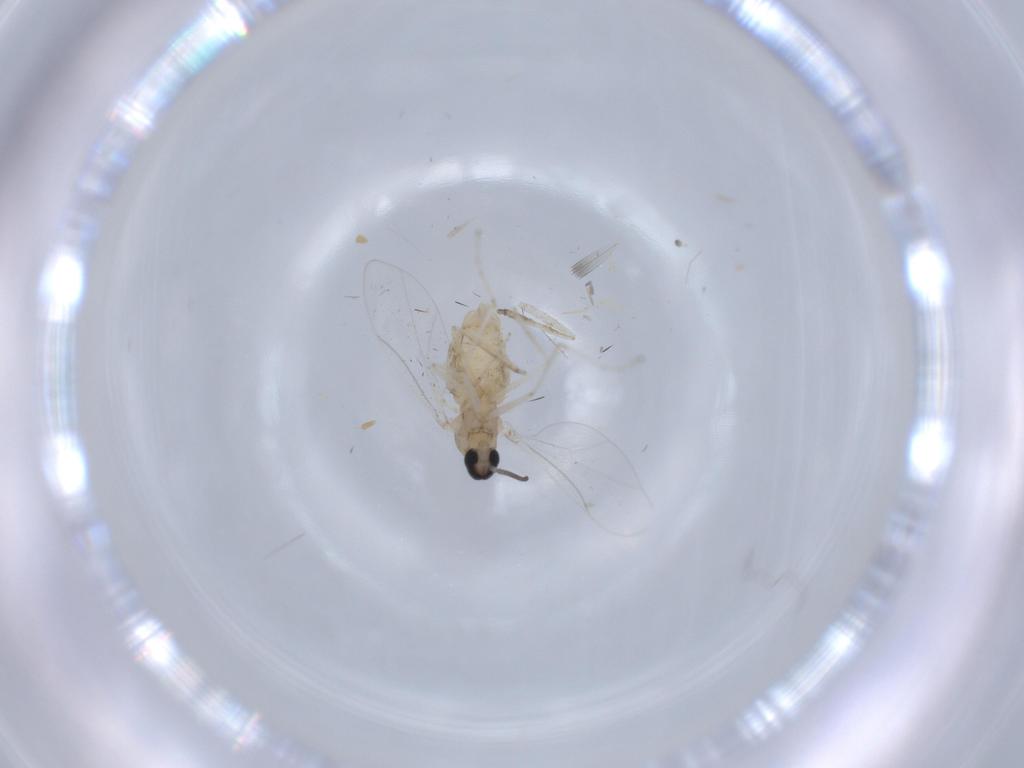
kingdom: Animalia
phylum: Arthropoda
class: Insecta
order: Diptera
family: Cecidomyiidae
